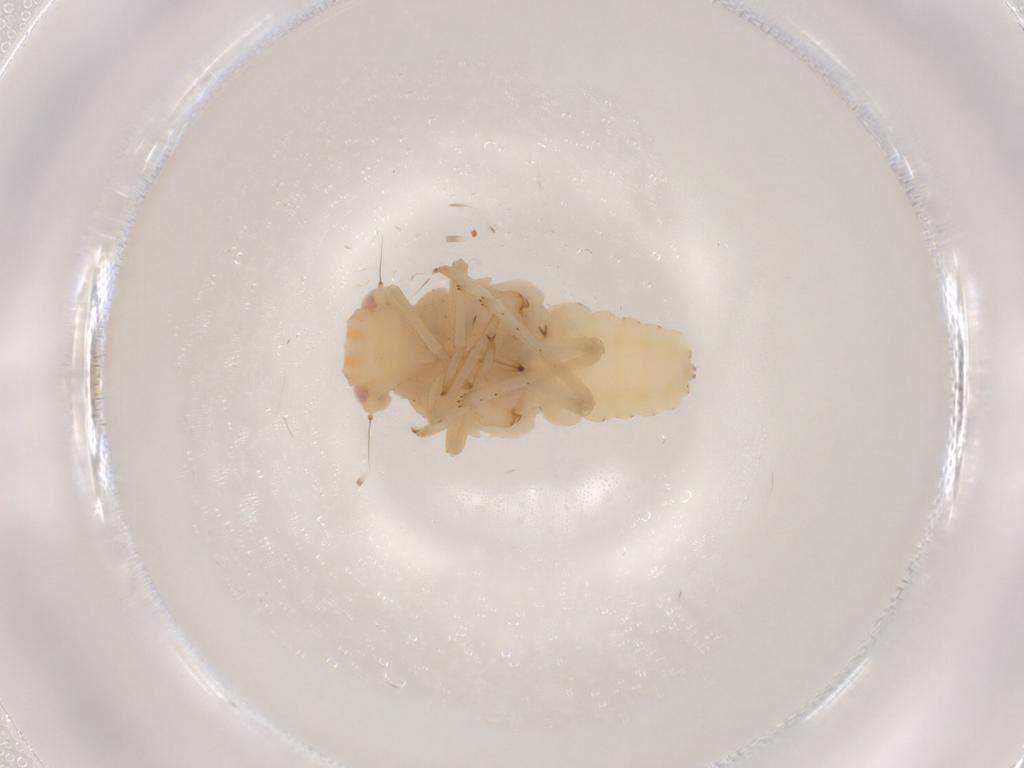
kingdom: Animalia
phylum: Arthropoda
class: Insecta
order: Hemiptera
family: Tropiduchidae
